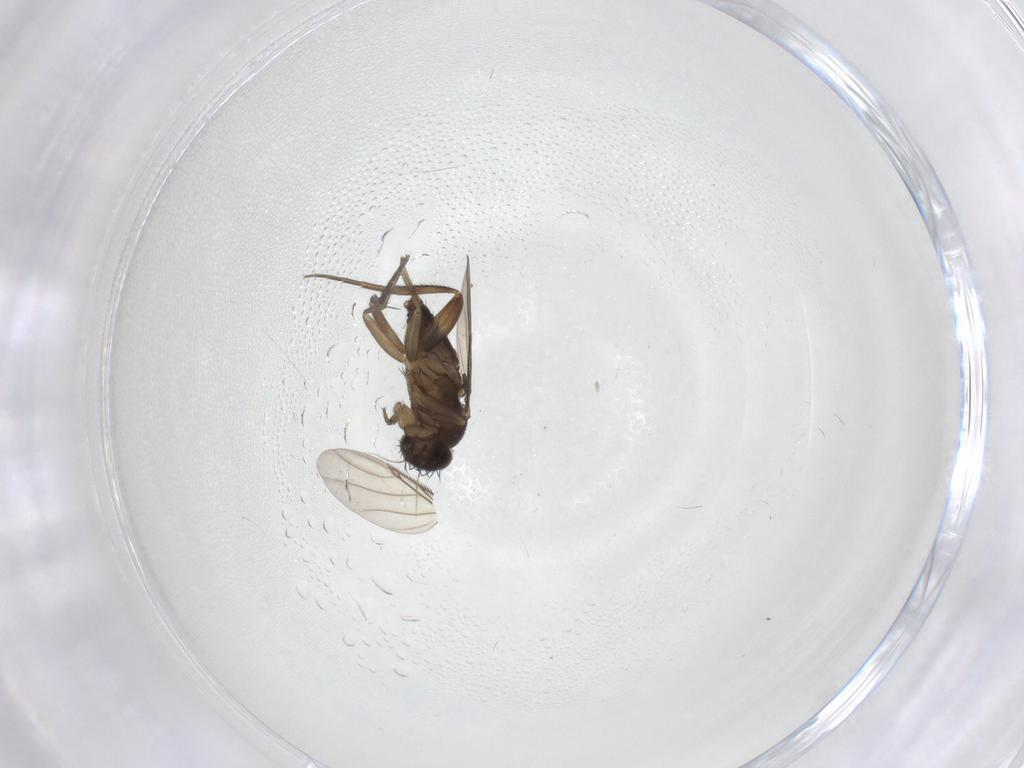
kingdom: Animalia
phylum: Arthropoda
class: Insecta
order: Diptera
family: Phoridae
